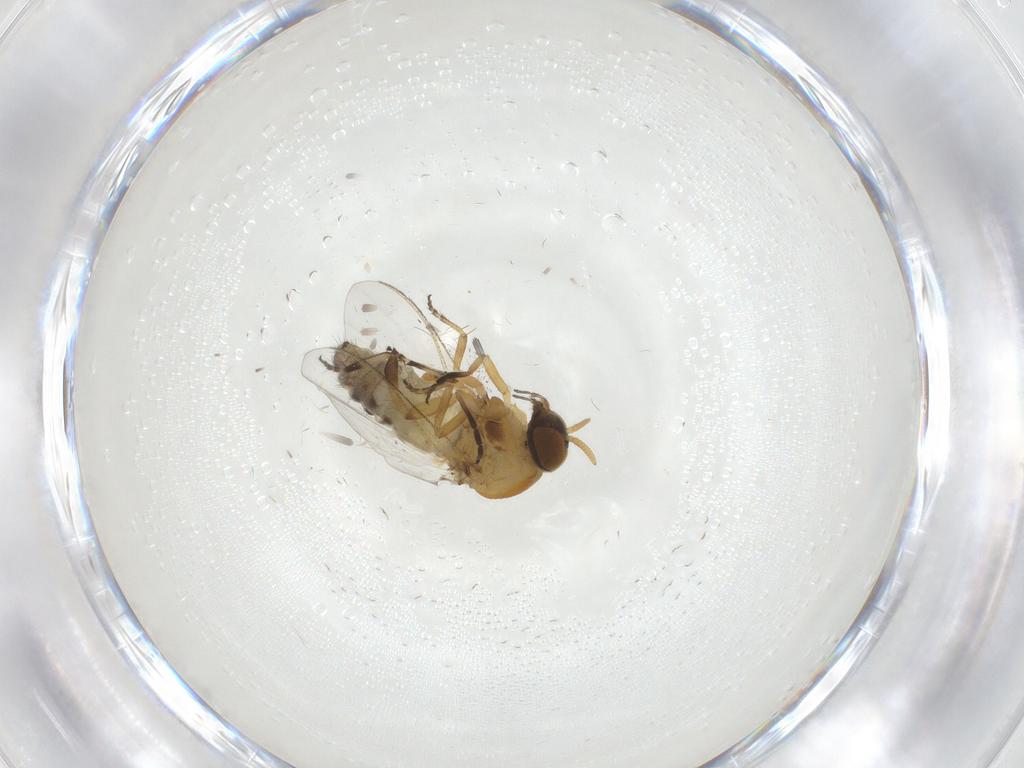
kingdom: Animalia
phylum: Arthropoda
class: Insecta
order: Diptera
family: Simuliidae
